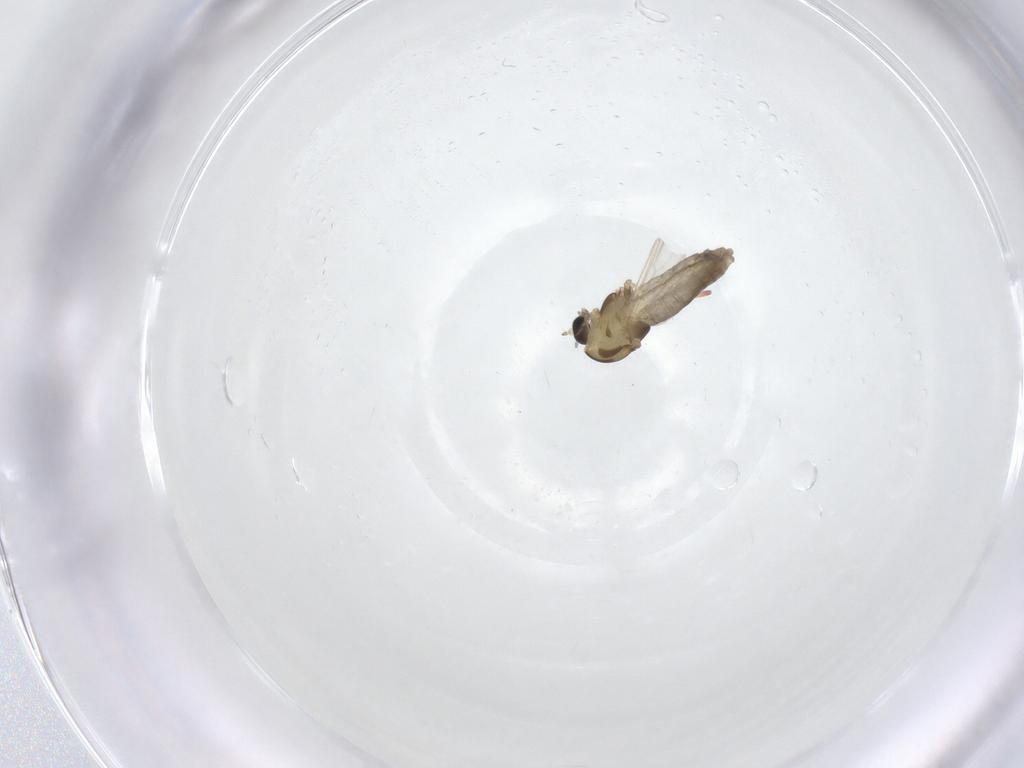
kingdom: Animalia
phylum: Arthropoda
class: Insecta
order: Diptera
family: Chironomidae
